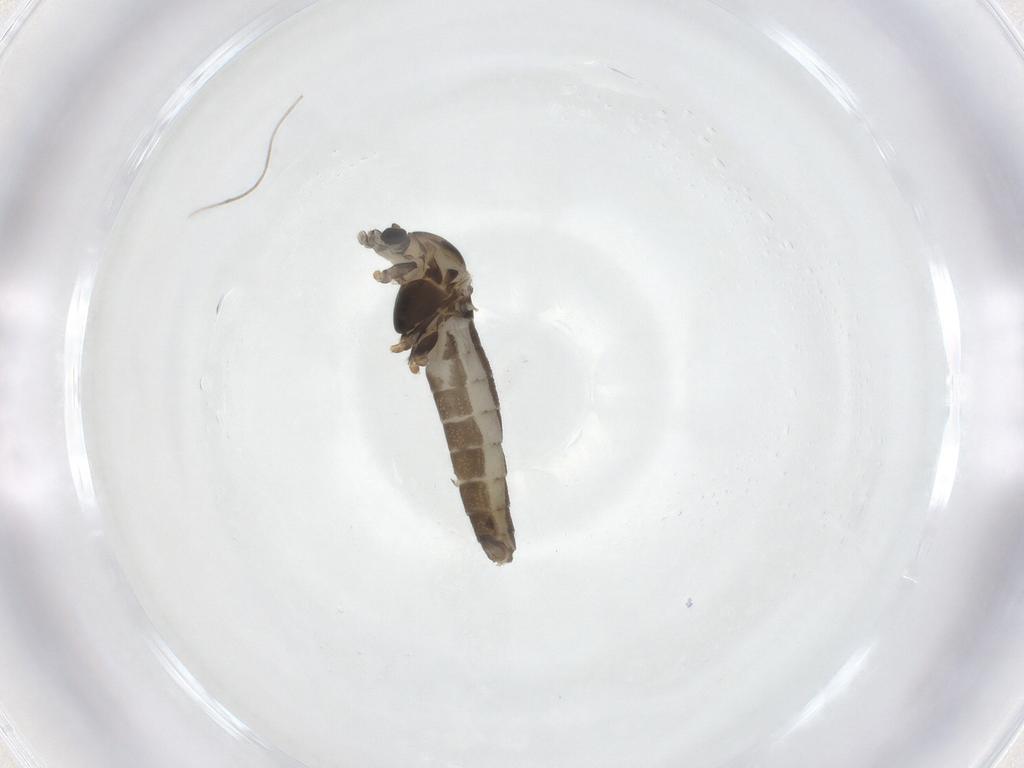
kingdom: Animalia
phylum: Arthropoda
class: Insecta
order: Diptera
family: Chironomidae
